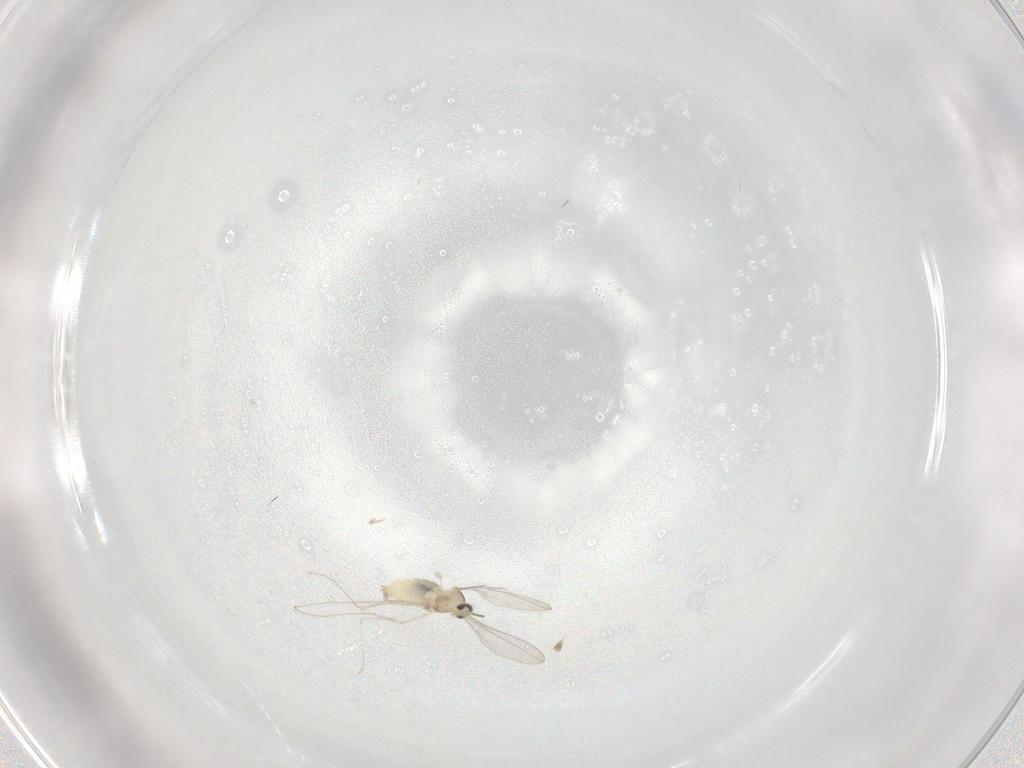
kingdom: Animalia
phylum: Arthropoda
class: Insecta
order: Diptera
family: Cecidomyiidae
